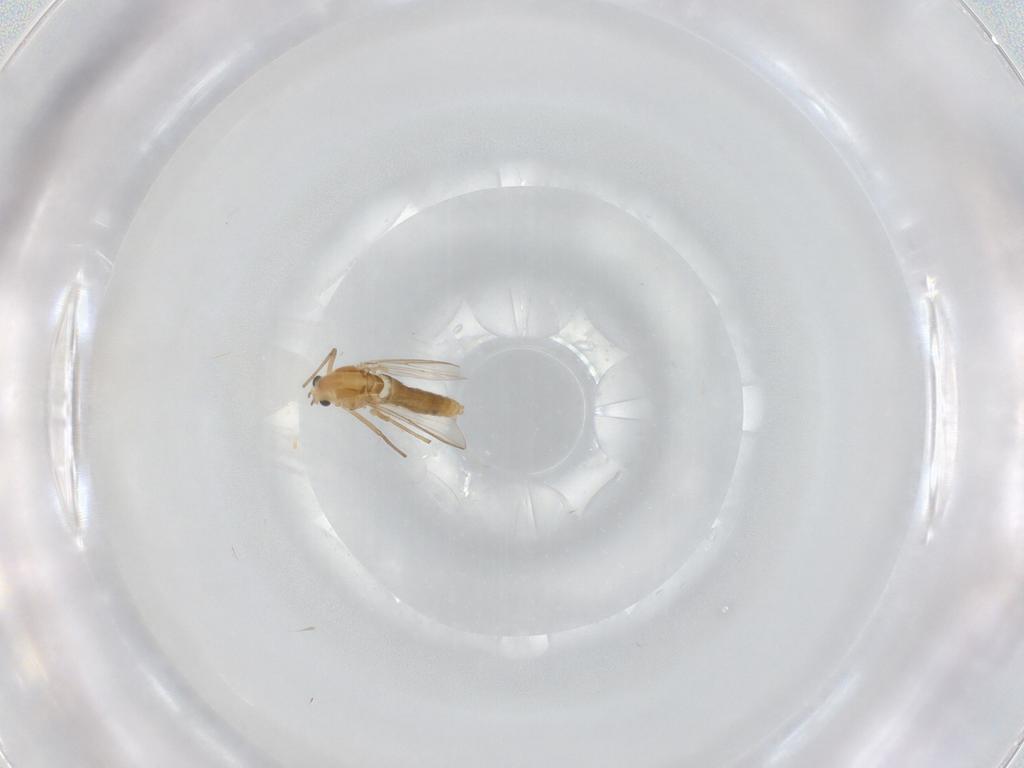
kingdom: Animalia
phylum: Arthropoda
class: Insecta
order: Diptera
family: Chironomidae
